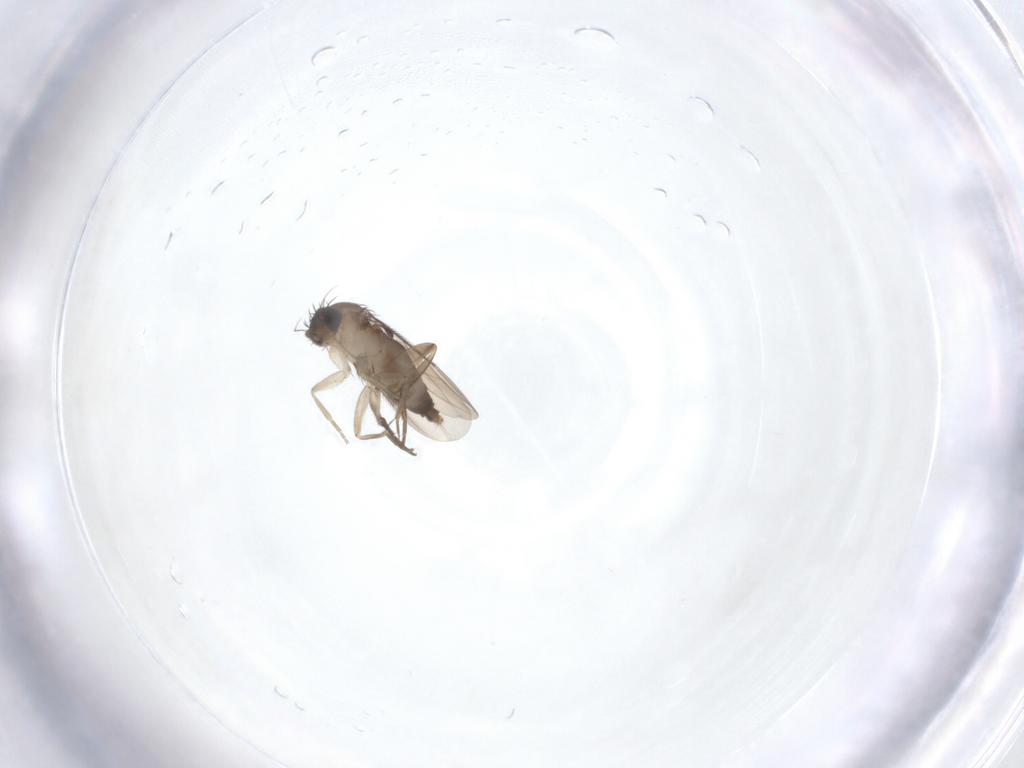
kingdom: Animalia
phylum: Arthropoda
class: Insecta
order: Diptera
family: Phoridae
